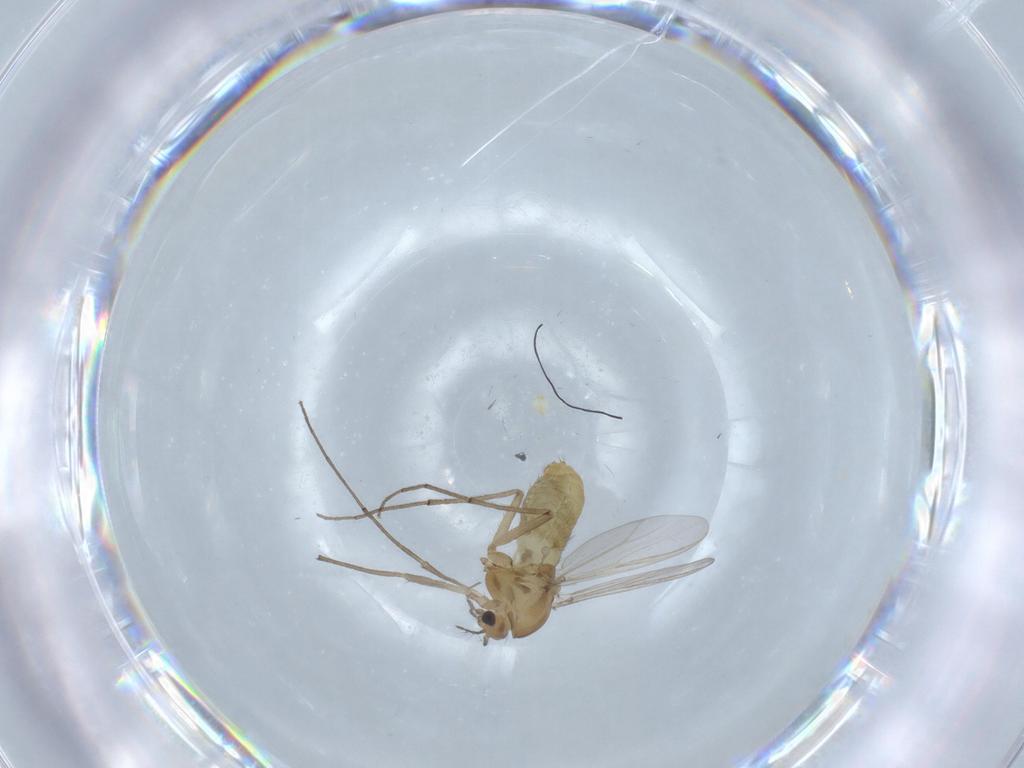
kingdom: Animalia
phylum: Arthropoda
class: Insecta
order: Diptera
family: Chironomidae
